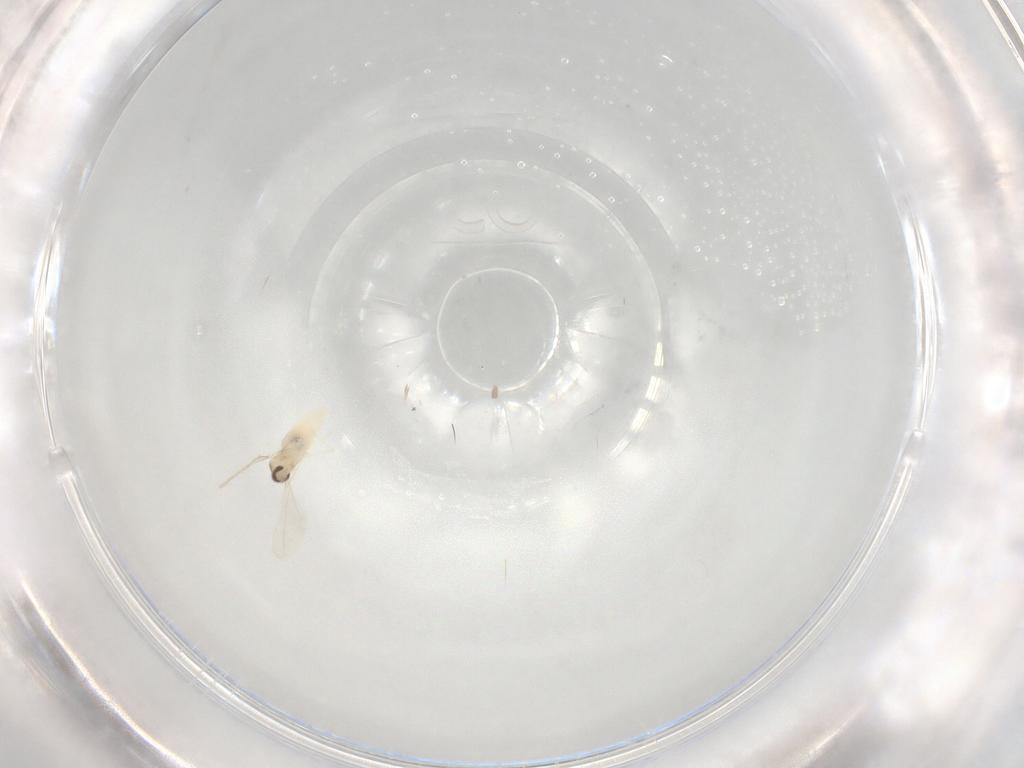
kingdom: Animalia
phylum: Arthropoda
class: Insecta
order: Diptera
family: Cecidomyiidae
